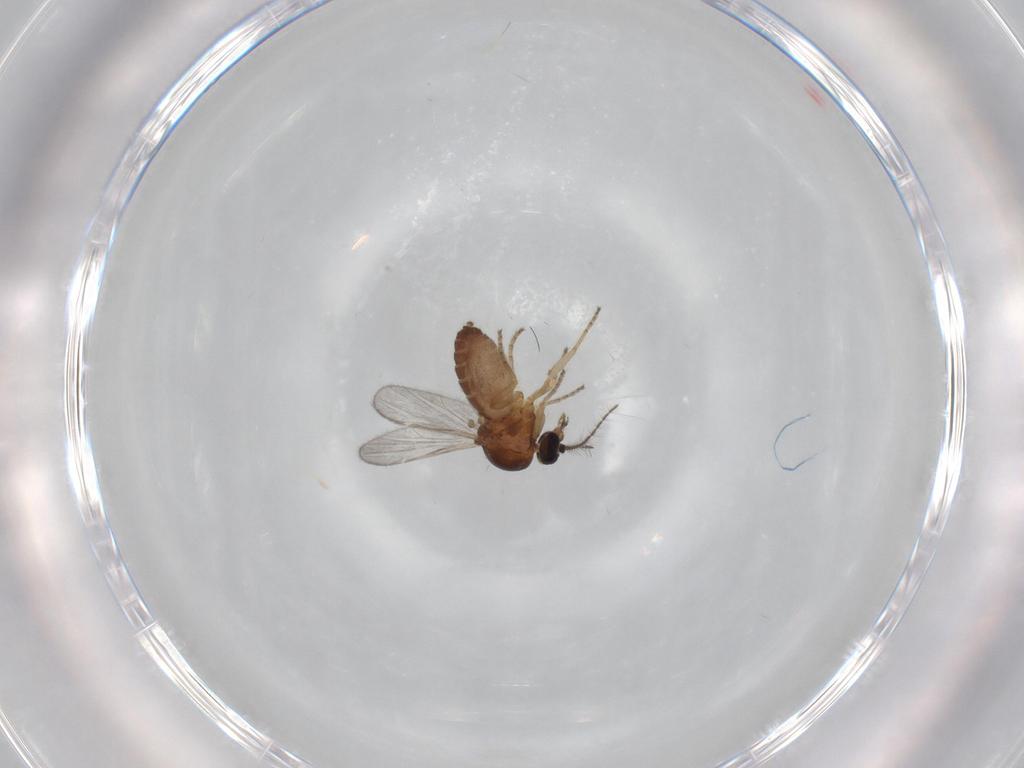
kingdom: Animalia
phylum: Arthropoda
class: Insecta
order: Diptera
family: Ceratopogonidae
